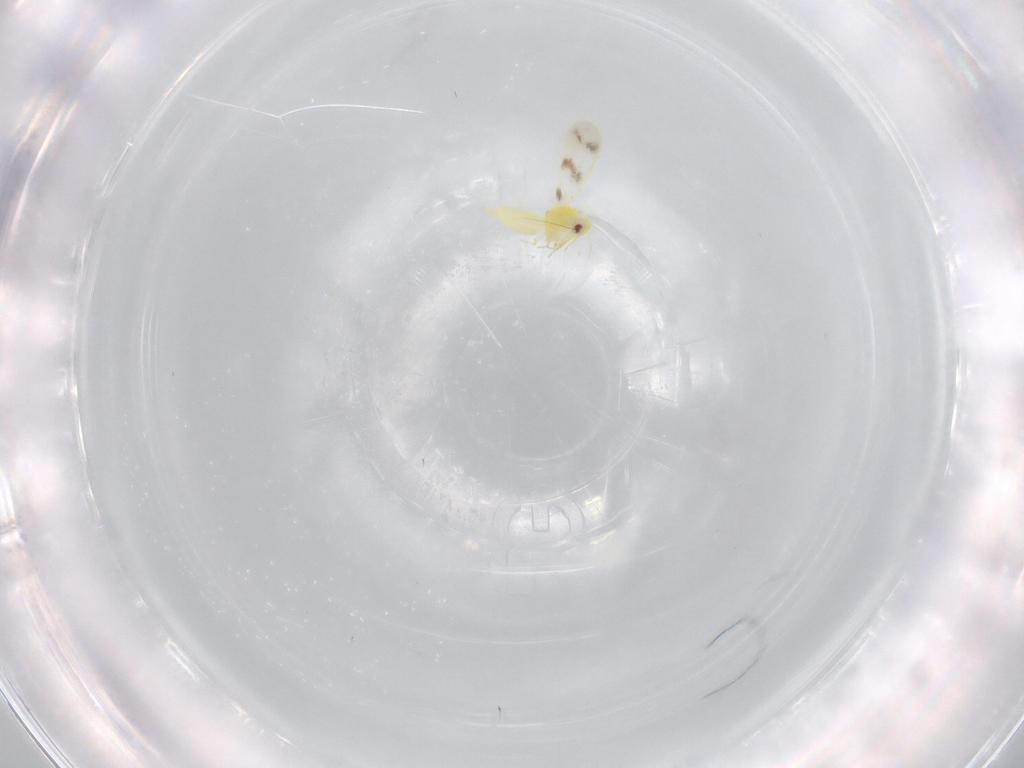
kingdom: Animalia
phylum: Arthropoda
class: Insecta
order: Hemiptera
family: Aleyrodidae
